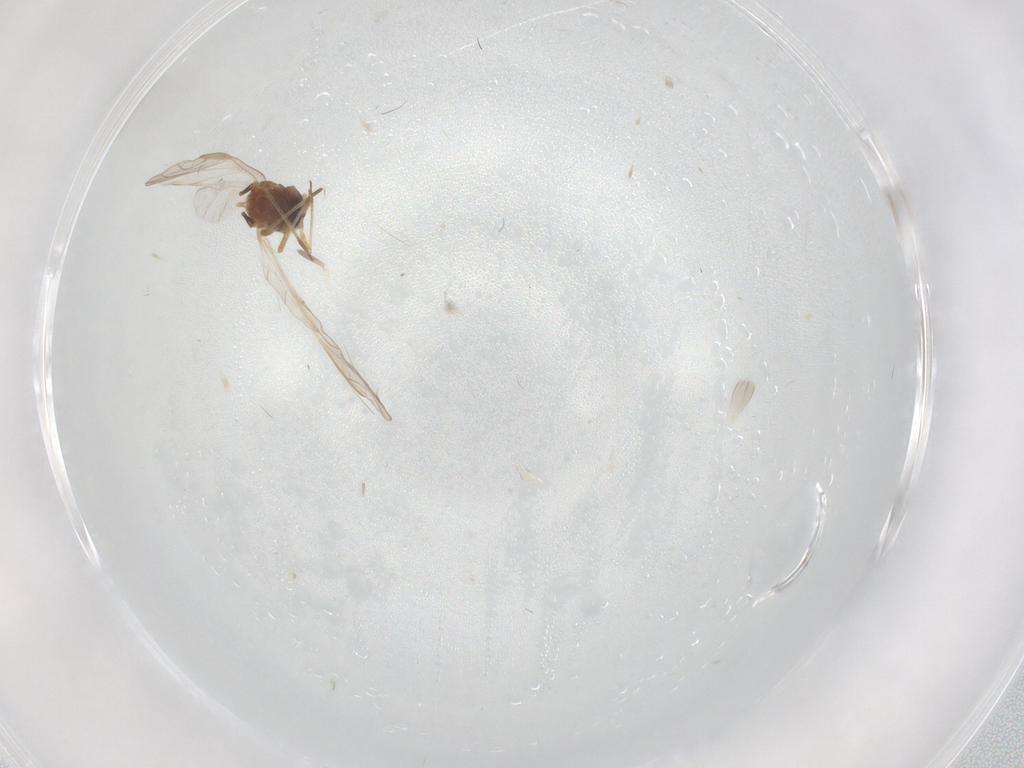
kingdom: Animalia
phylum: Arthropoda
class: Insecta
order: Hemiptera
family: Aphididae
